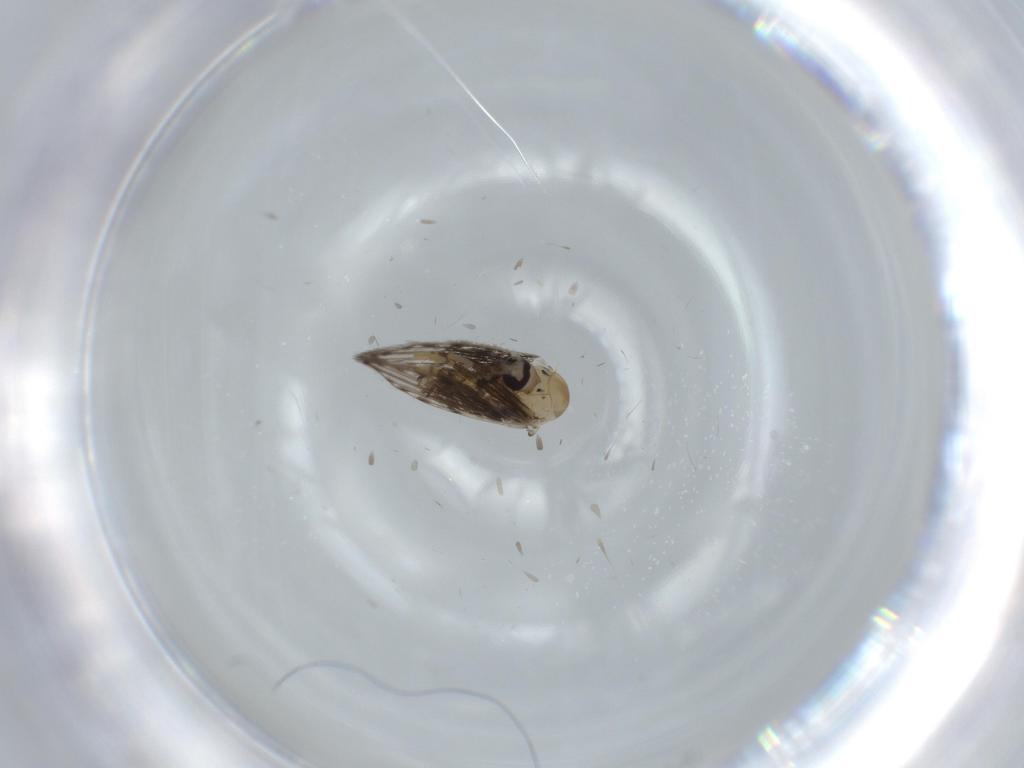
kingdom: Animalia
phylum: Arthropoda
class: Insecta
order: Diptera
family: Psychodidae
